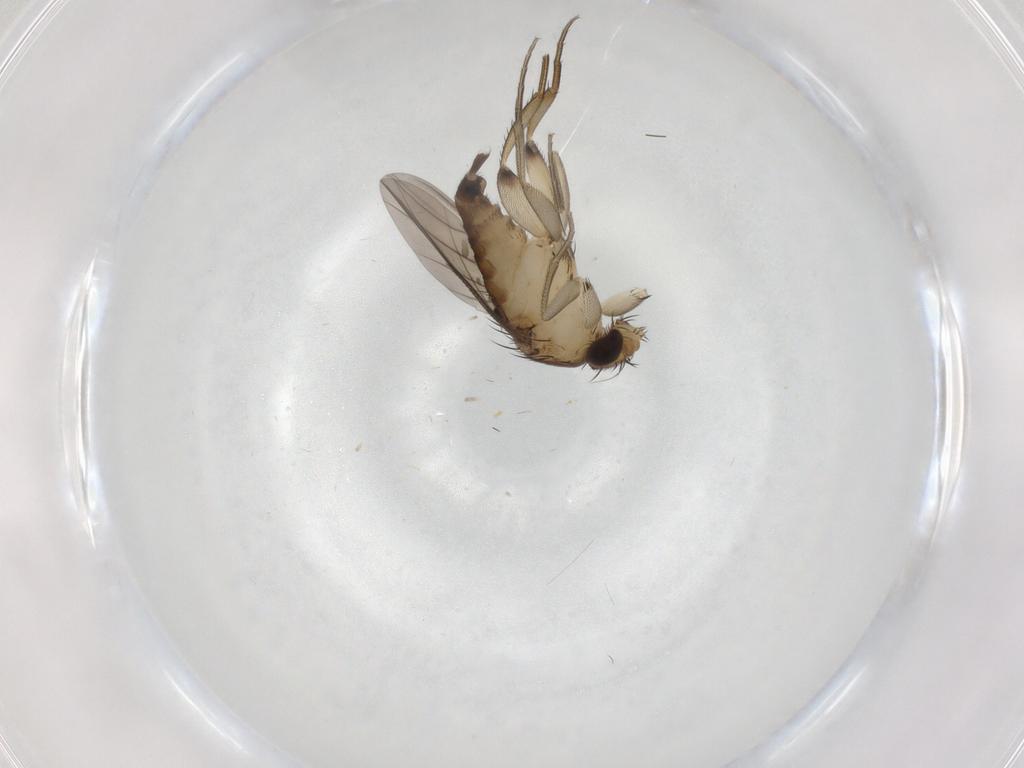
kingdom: Animalia
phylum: Arthropoda
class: Insecta
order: Diptera
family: Phoridae
